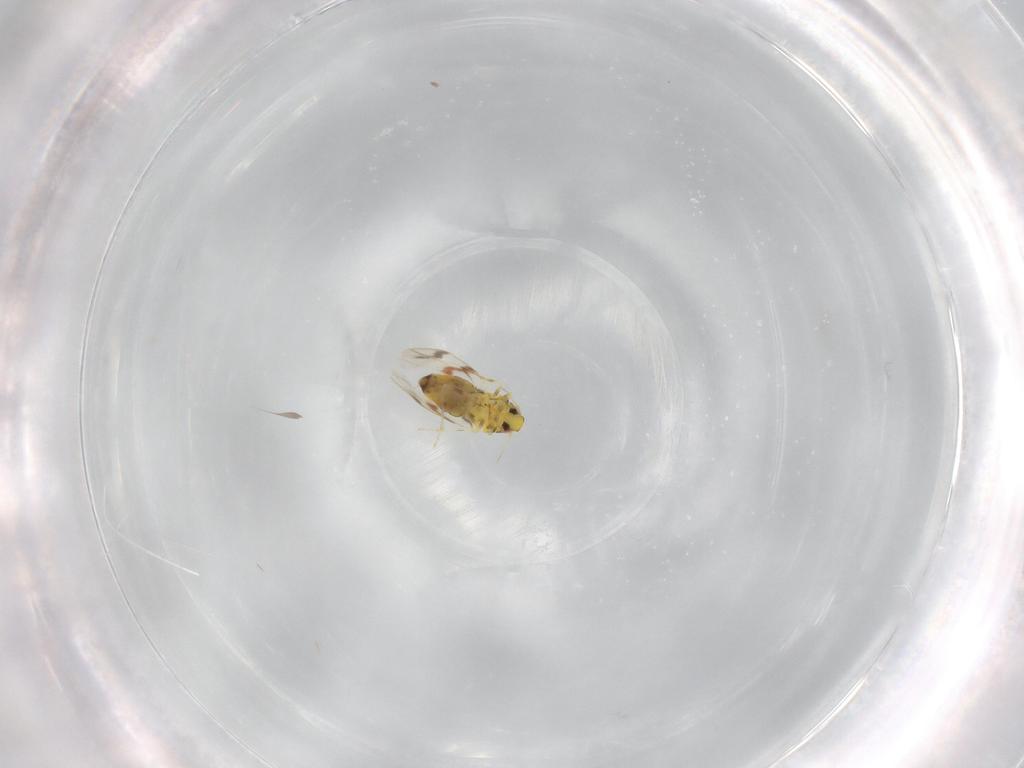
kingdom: Animalia
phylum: Arthropoda
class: Insecta
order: Hemiptera
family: Aleyrodidae
